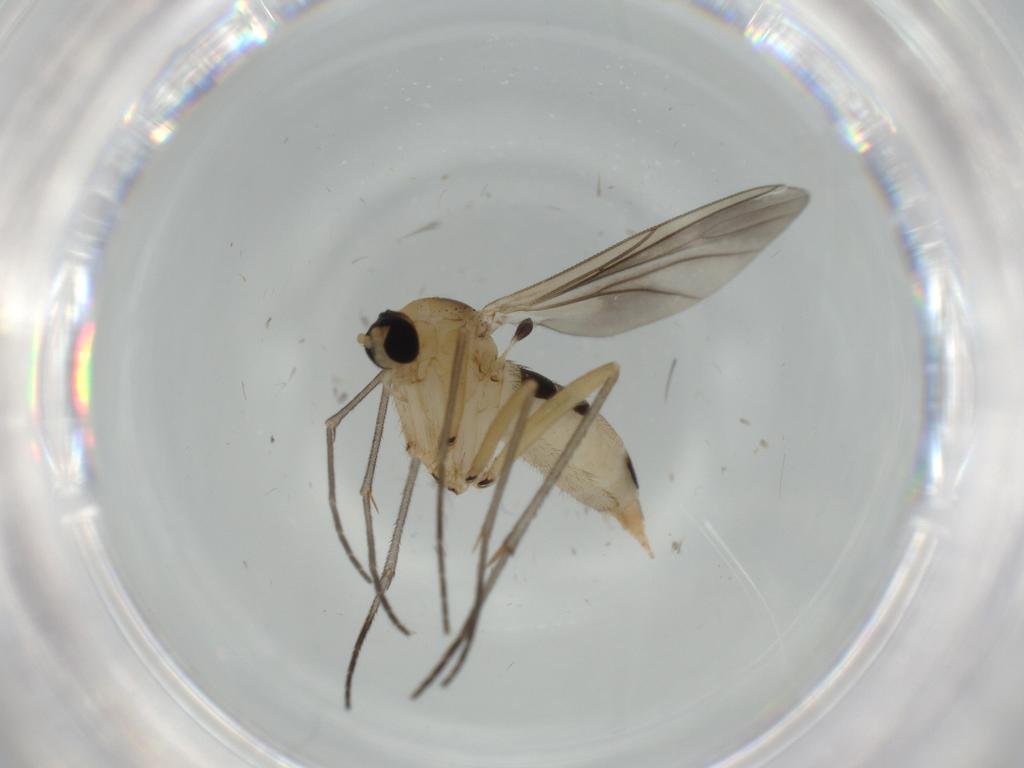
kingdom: Animalia
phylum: Arthropoda
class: Insecta
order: Diptera
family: Sciaridae
